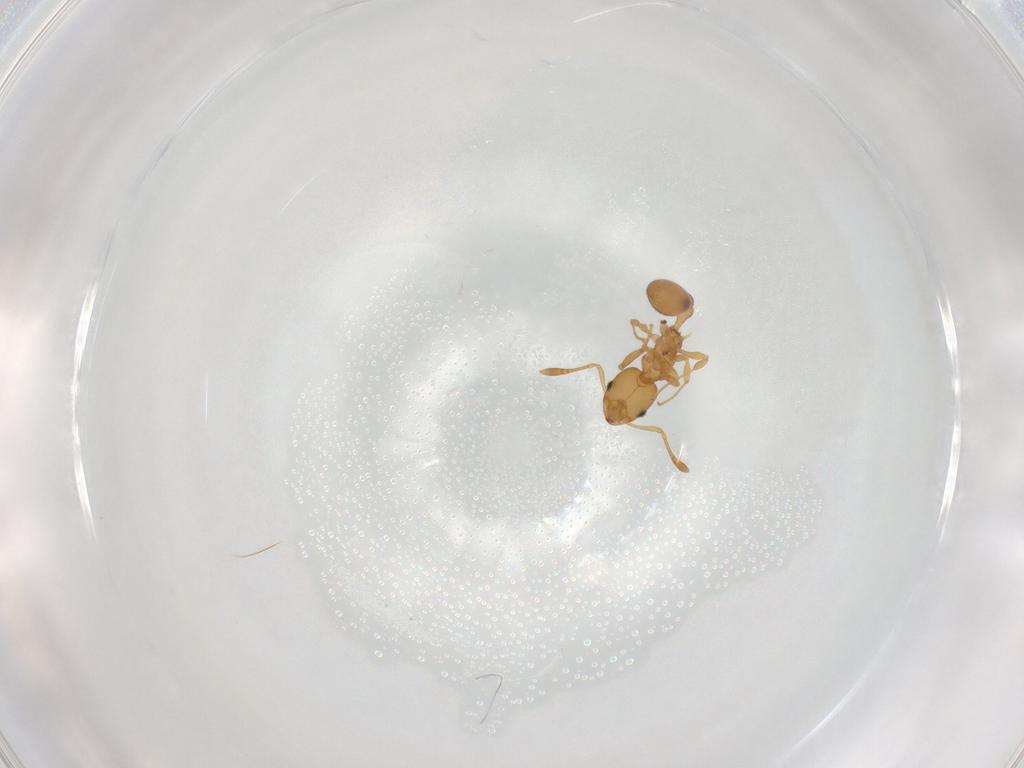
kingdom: Animalia
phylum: Arthropoda
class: Insecta
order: Hymenoptera
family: Formicidae
